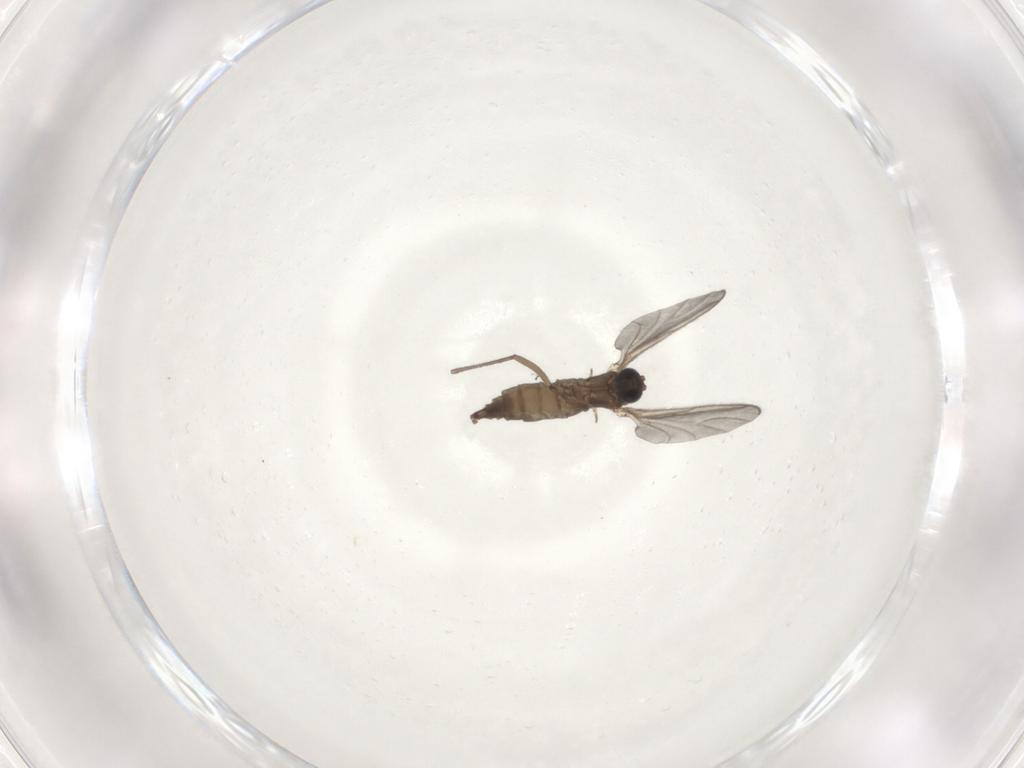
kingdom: Animalia
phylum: Arthropoda
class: Insecta
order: Diptera
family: Sciaridae
